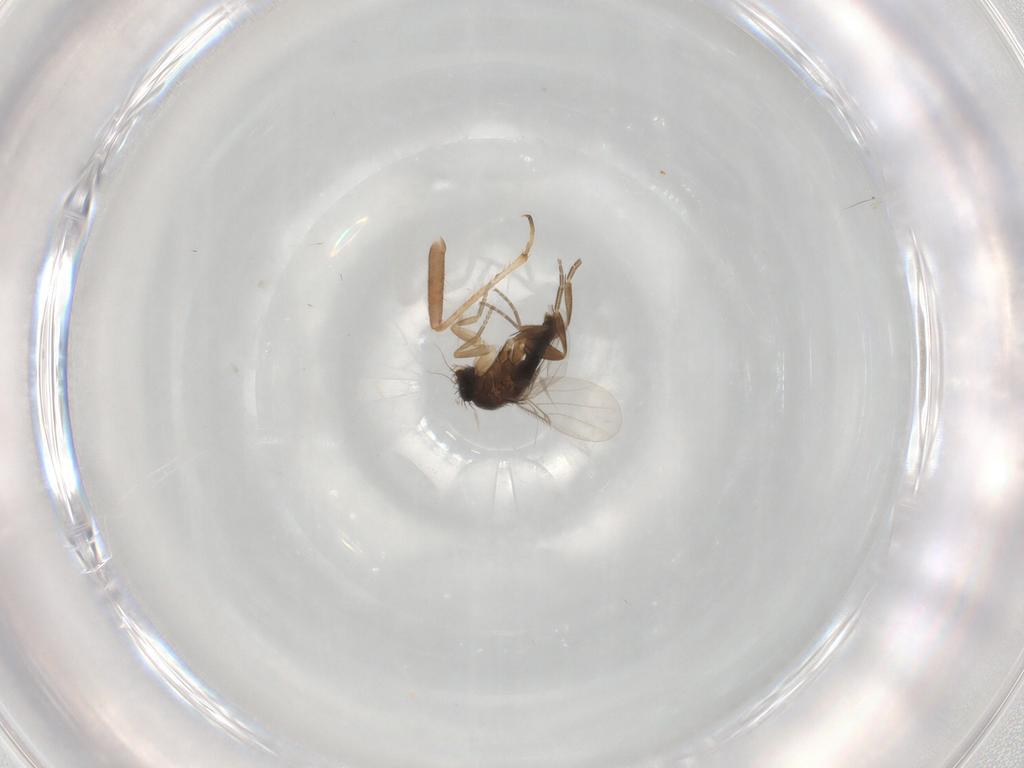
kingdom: Animalia
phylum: Arthropoda
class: Insecta
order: Diptera
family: Phoridae
